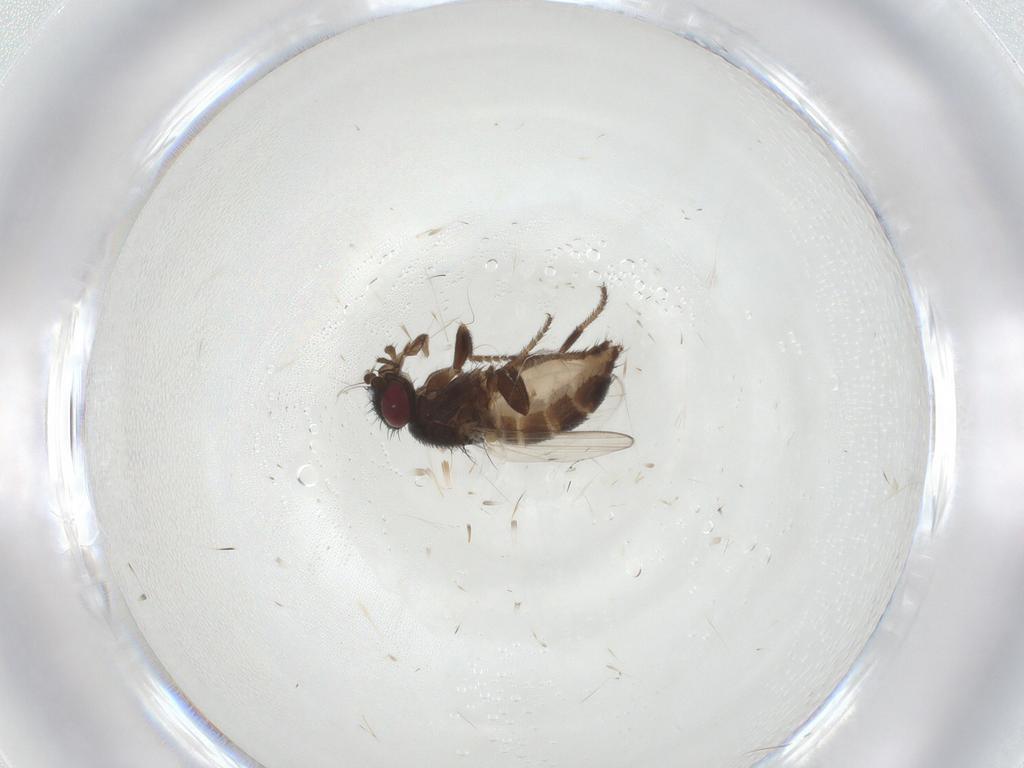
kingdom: Animalia
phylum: Arthropoda
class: Insecta
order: Diptera
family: Milichiidae
